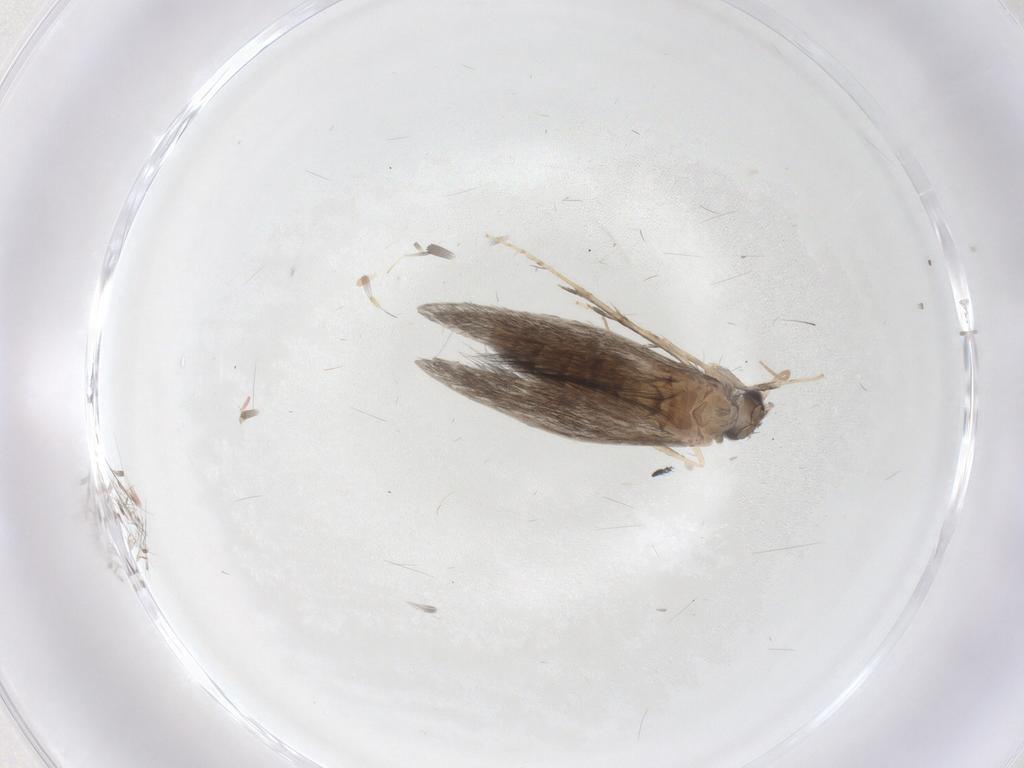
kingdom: Animalia
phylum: Arthropoda
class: Insecta
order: Trichoptera
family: Hydroptilidae
